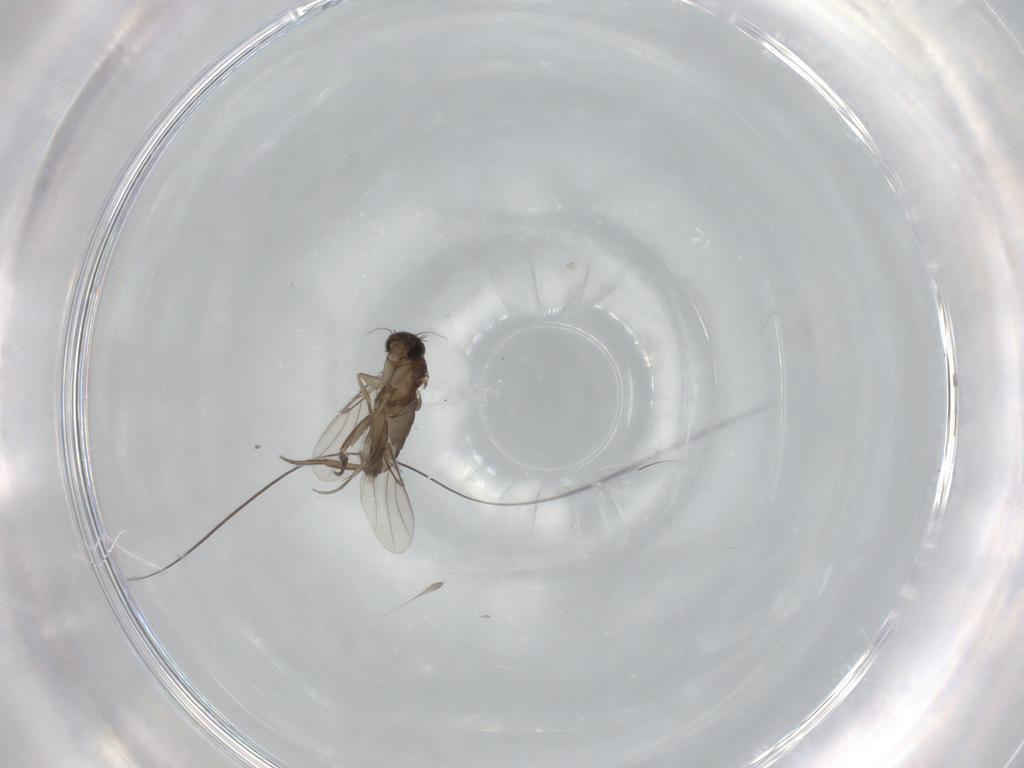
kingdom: Animalia
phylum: Arthropoda
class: Insecta
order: Diptera
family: Phoridae
